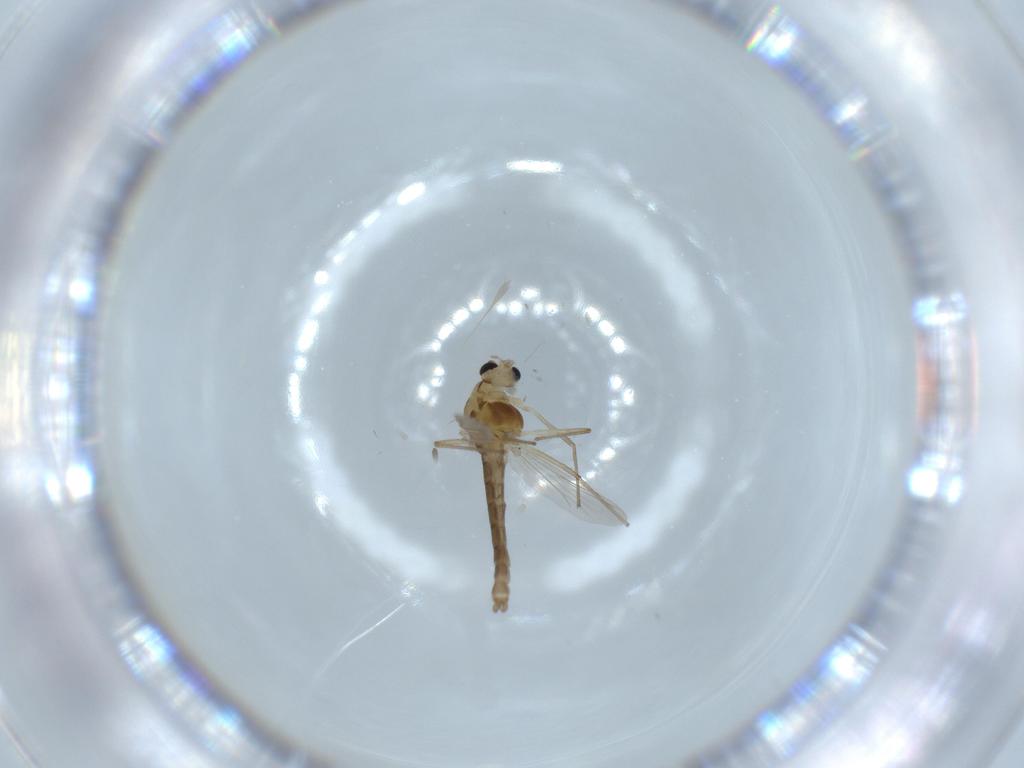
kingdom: Animalia
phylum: Arthropoda
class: Insecta
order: Diptera
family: Chironomidae
